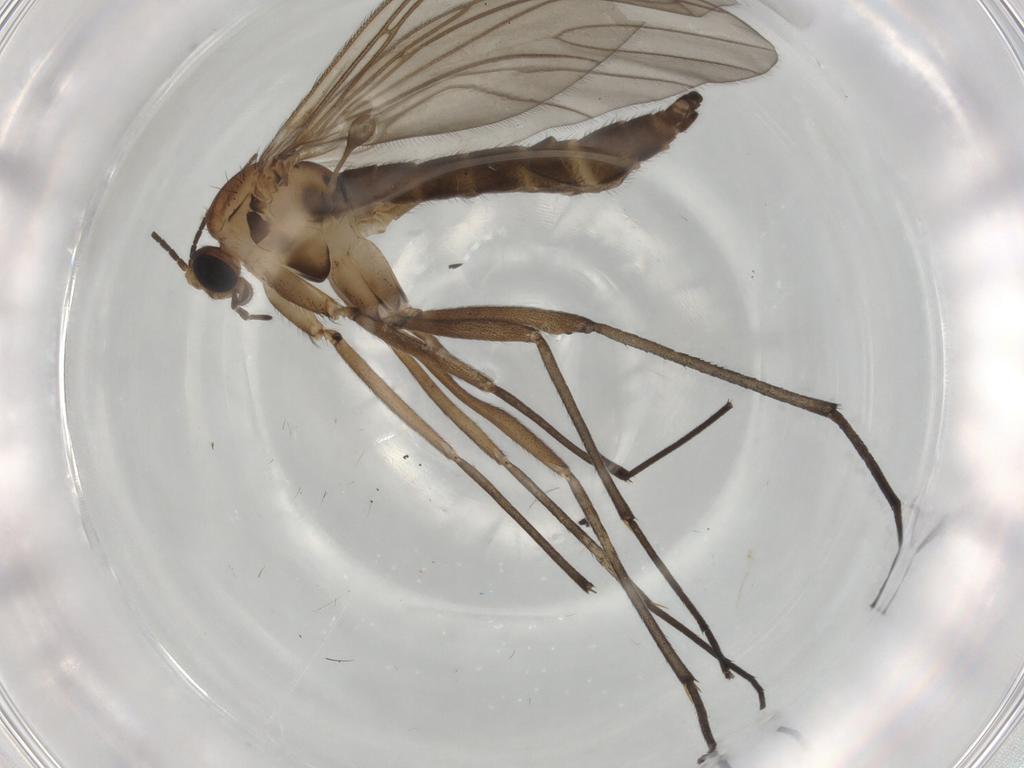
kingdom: Animalia
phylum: Arthropoda
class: Insecta
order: Diptera
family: Sciaridae
